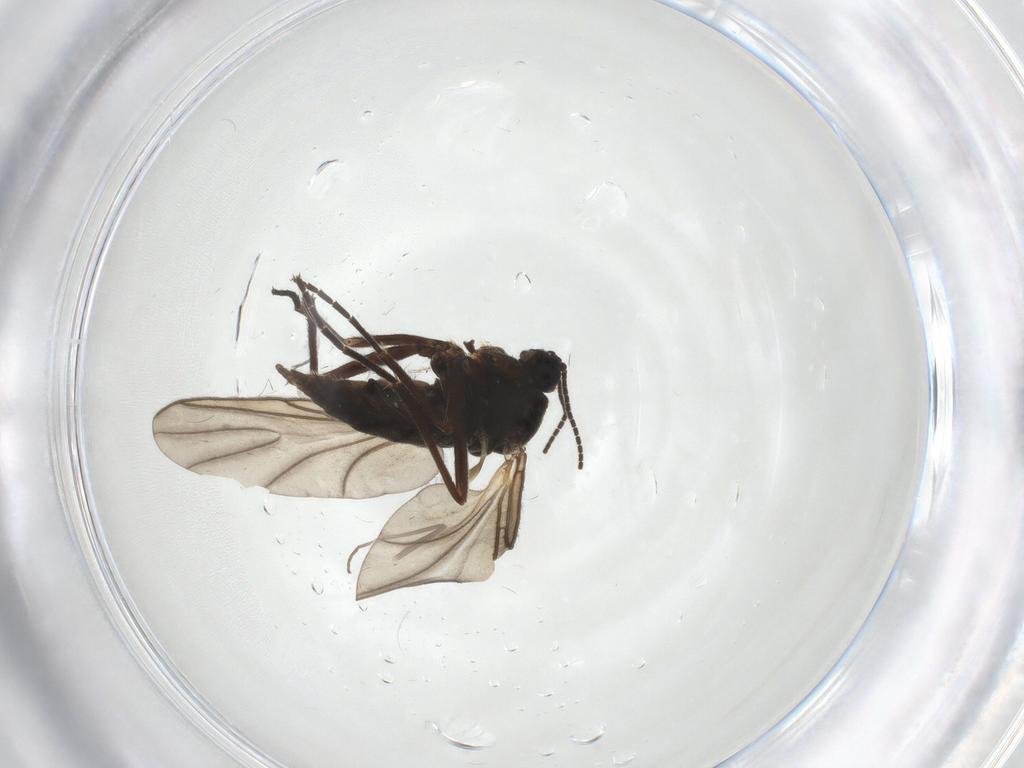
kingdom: Animalia
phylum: Arthropoda
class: Insecta
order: Diptera
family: Sciaridae
